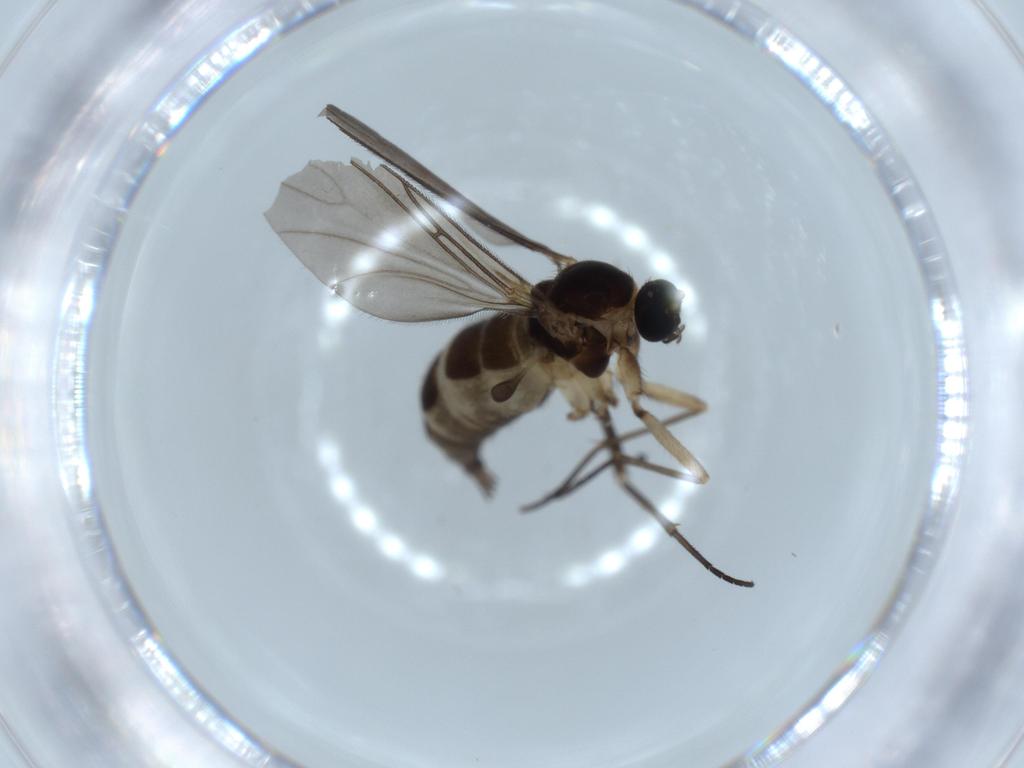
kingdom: Animalia
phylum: Arthropoda
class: Insecta
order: Diptera
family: Sciaridae
